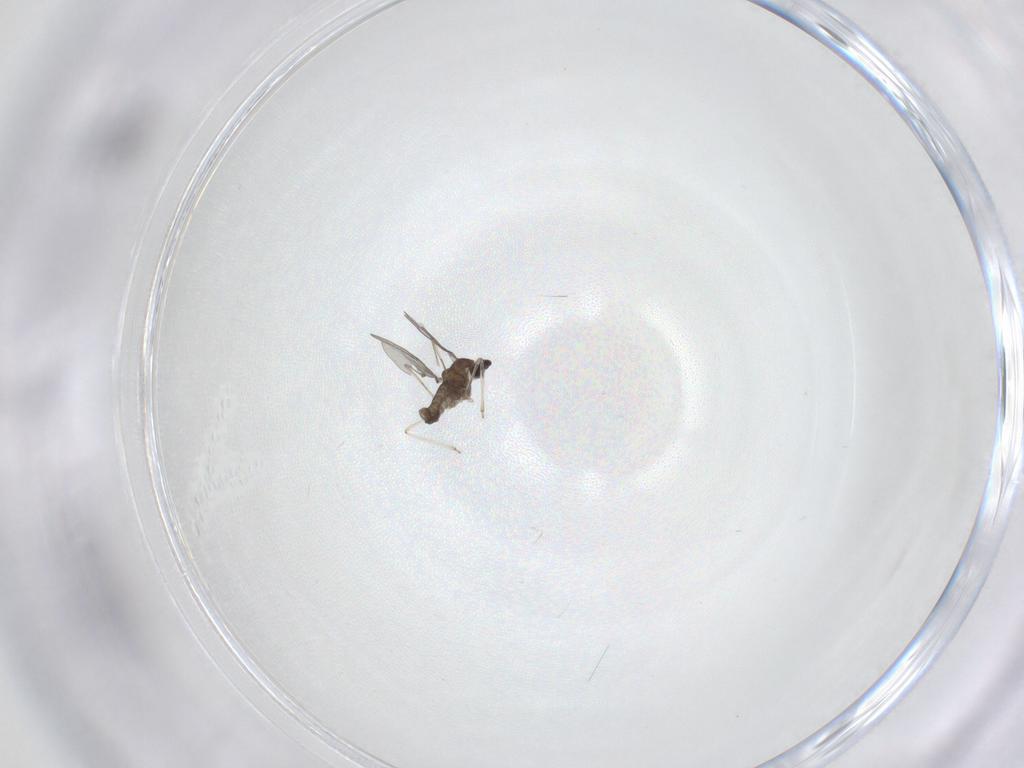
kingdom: Animalia
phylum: Arthropoda
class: Insecta
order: Diptera
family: Cecidomyiidae
